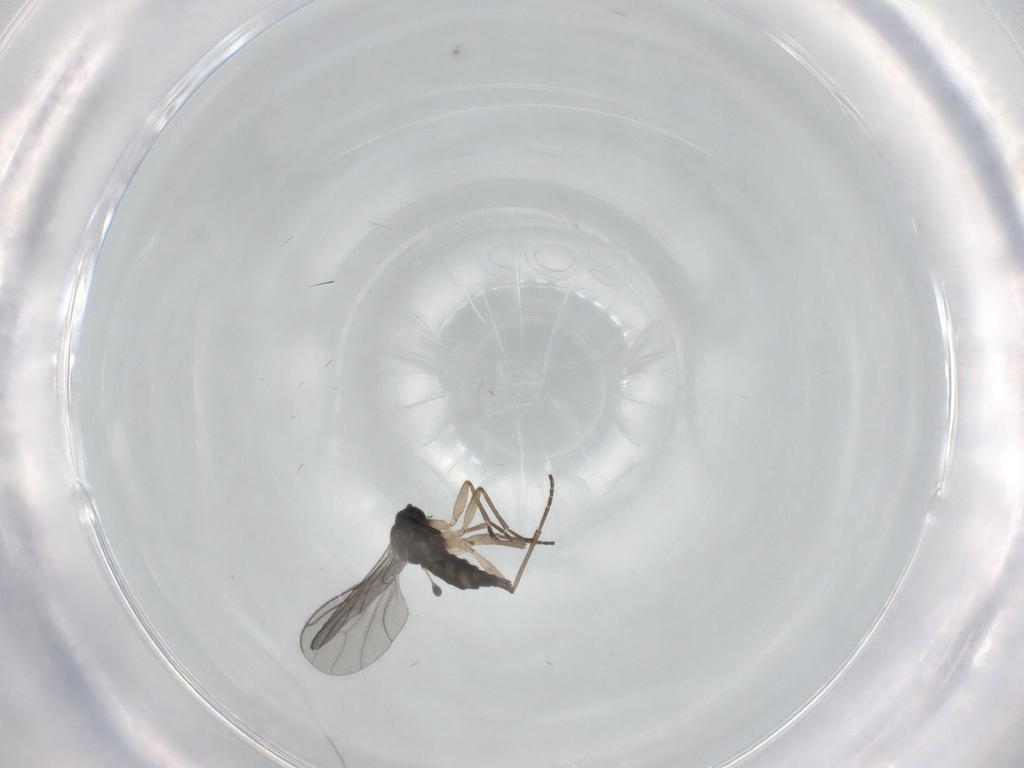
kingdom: Animalia
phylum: Arthropoda
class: Insecta
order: Diptera
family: Sciaridae
